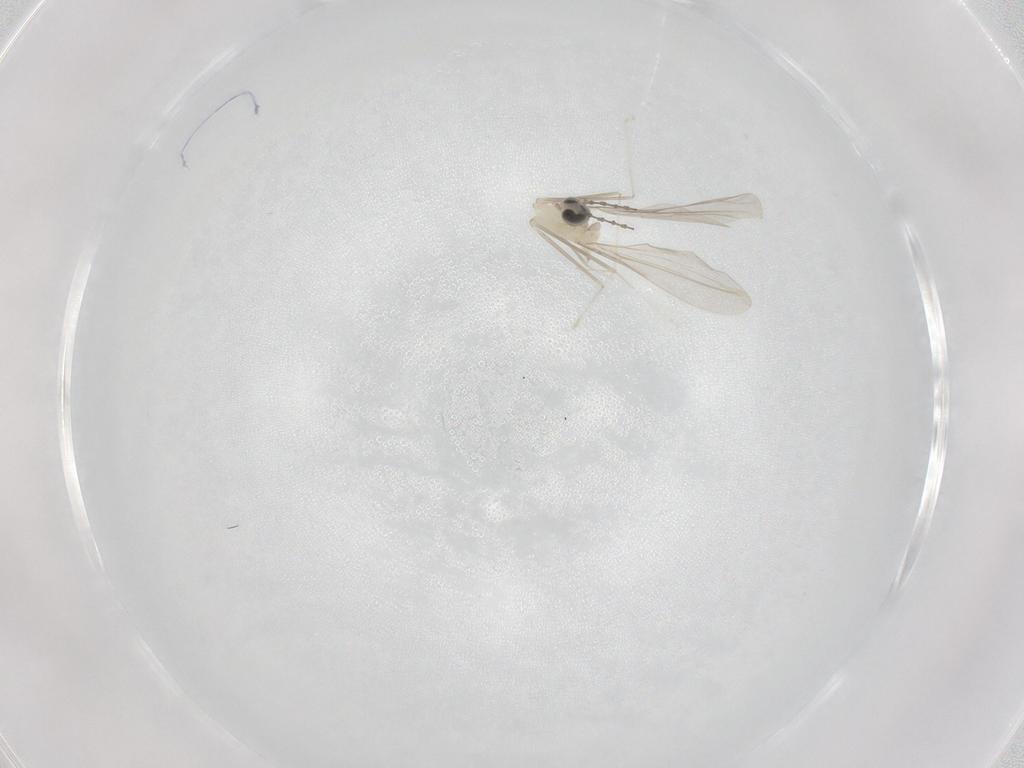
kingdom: Animalia
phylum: Arthropoda
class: Insecta
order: Diptera
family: Cecidomyiidae
